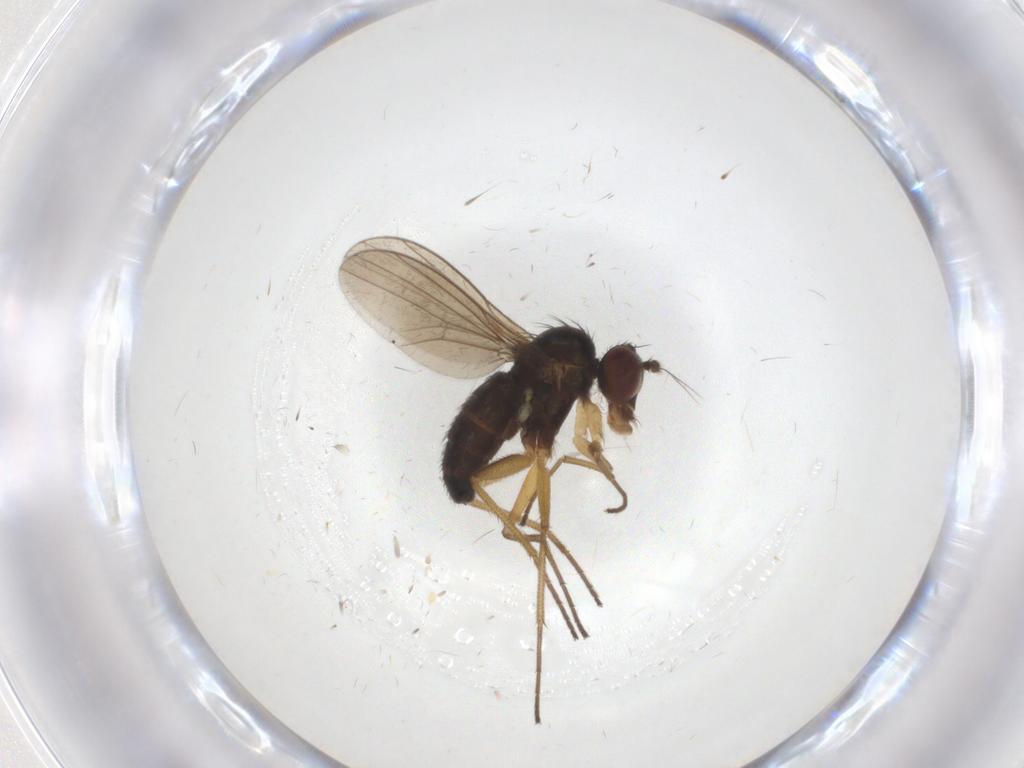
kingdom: Animalia
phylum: Arthropoda
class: Insecta
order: Diptera
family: Dolichopodidae
